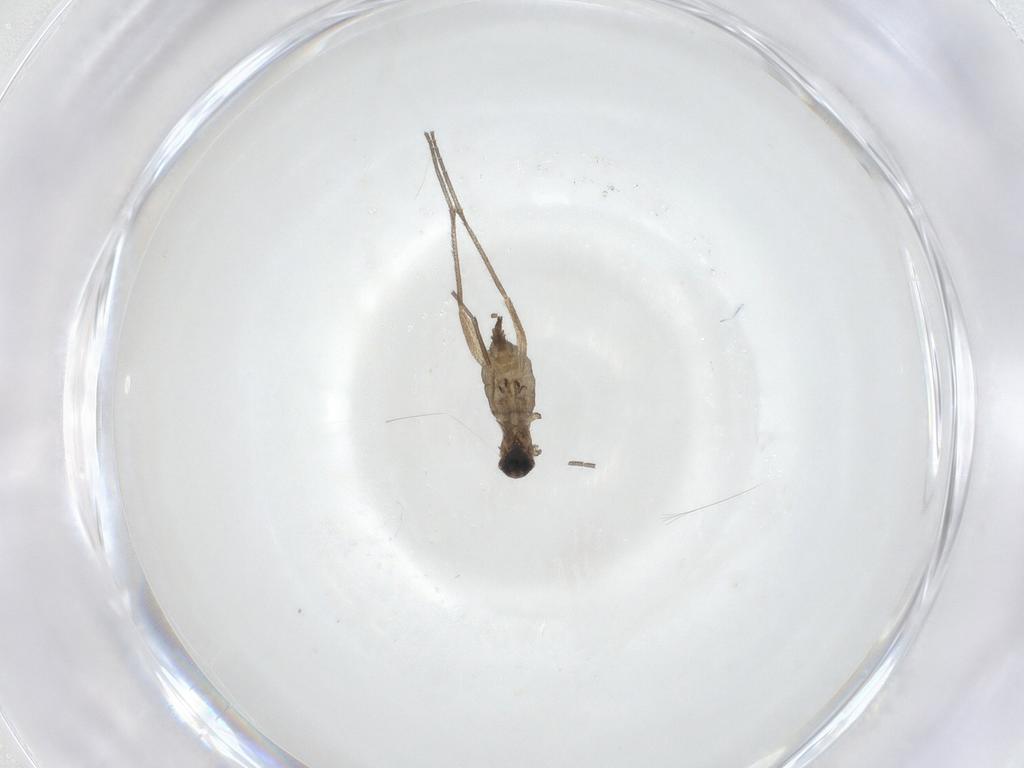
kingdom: Animalia
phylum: Arthropoda
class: Insecta
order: Diptera
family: Sciaridae
